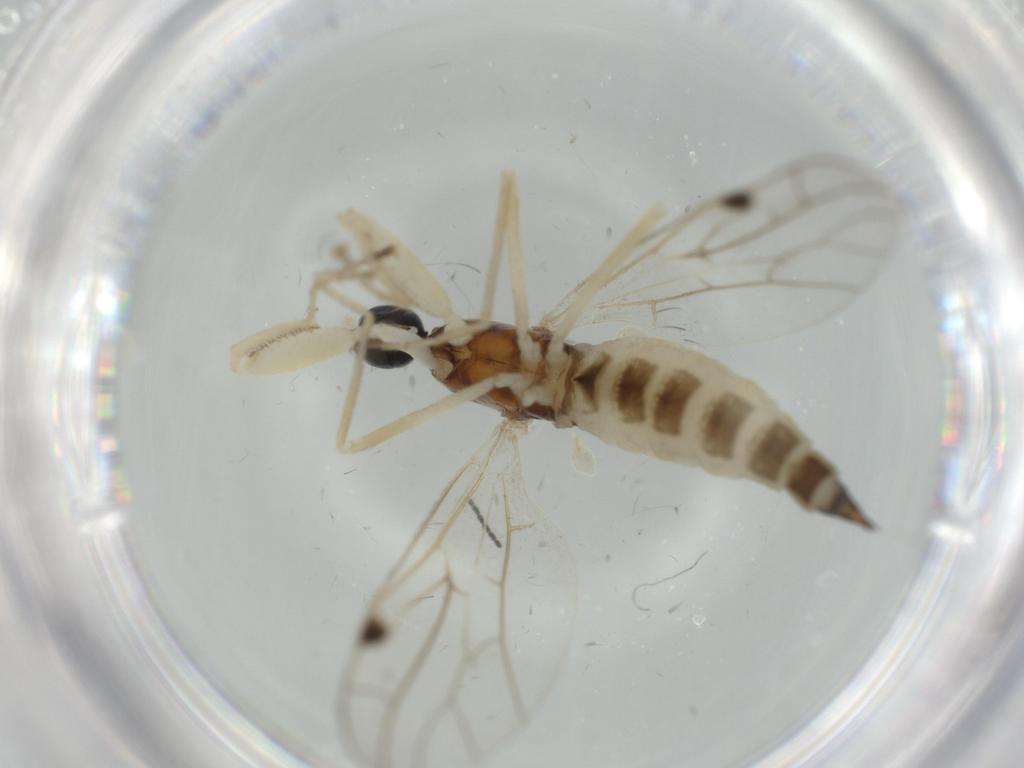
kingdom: Animalia
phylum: Arthropoda
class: Insecta
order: Diptera
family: Empididae
